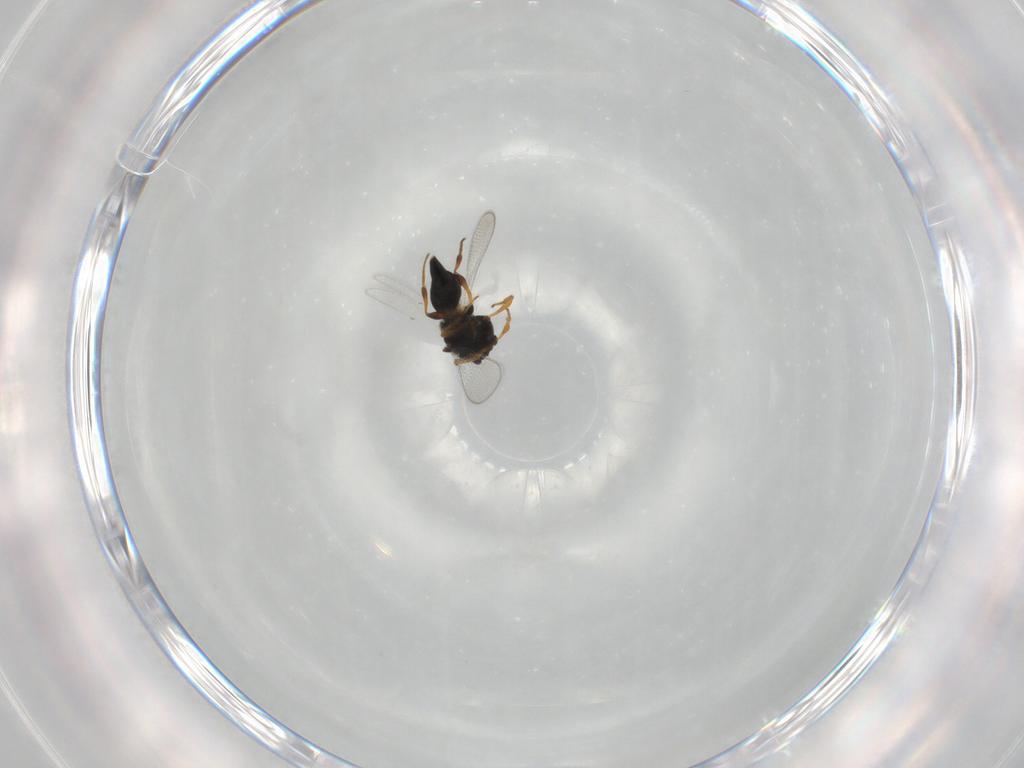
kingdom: Animalia
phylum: Arthropoda
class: Insecta
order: Hymenoptera
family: Platygastridae
